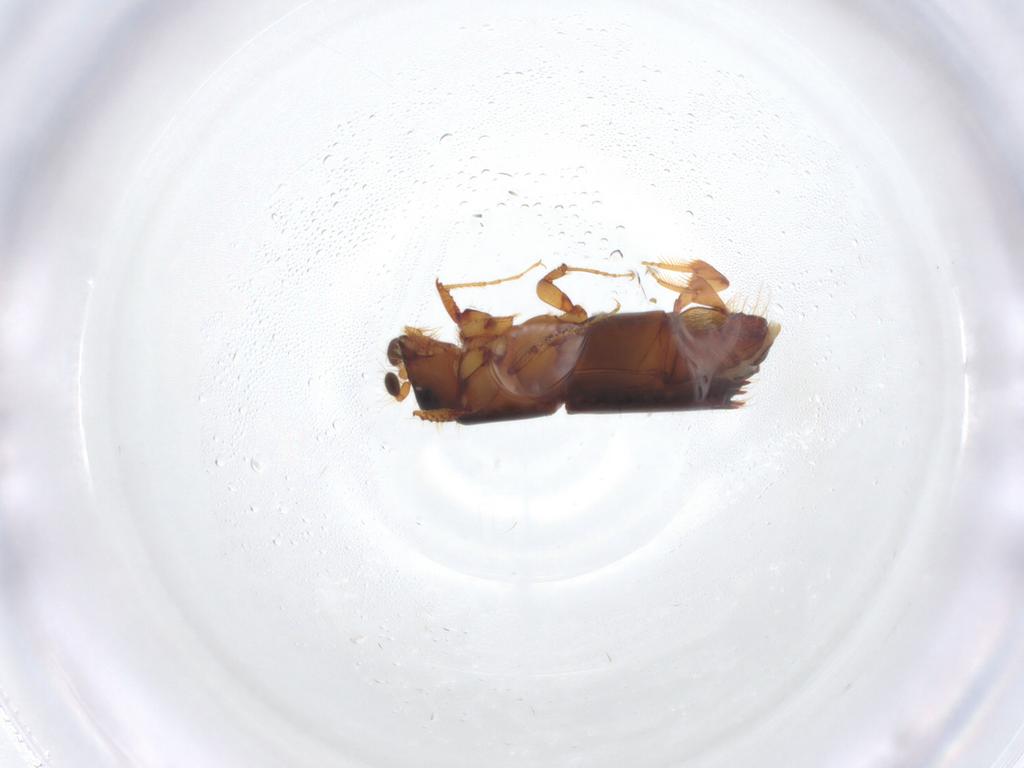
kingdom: Animalia
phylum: Arthropoda
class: Insecta
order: Coleoptera
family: Curculionidae
